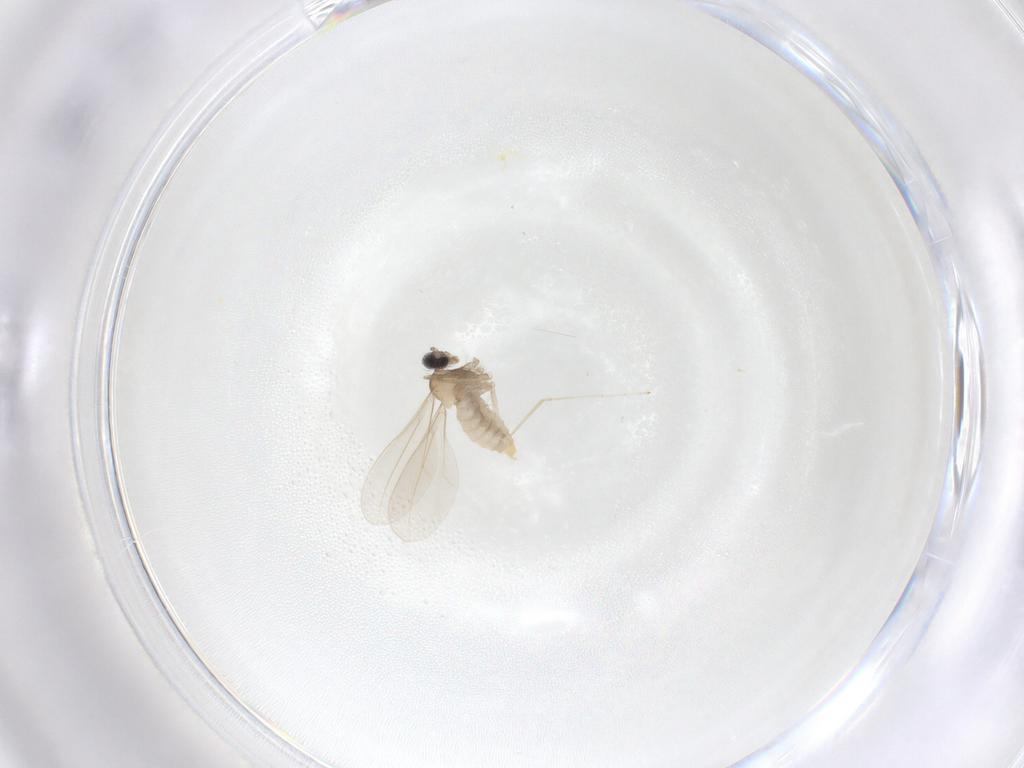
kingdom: Animalia
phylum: Arthropoda
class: Insecta
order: Diptera
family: Cecidomyiidae
